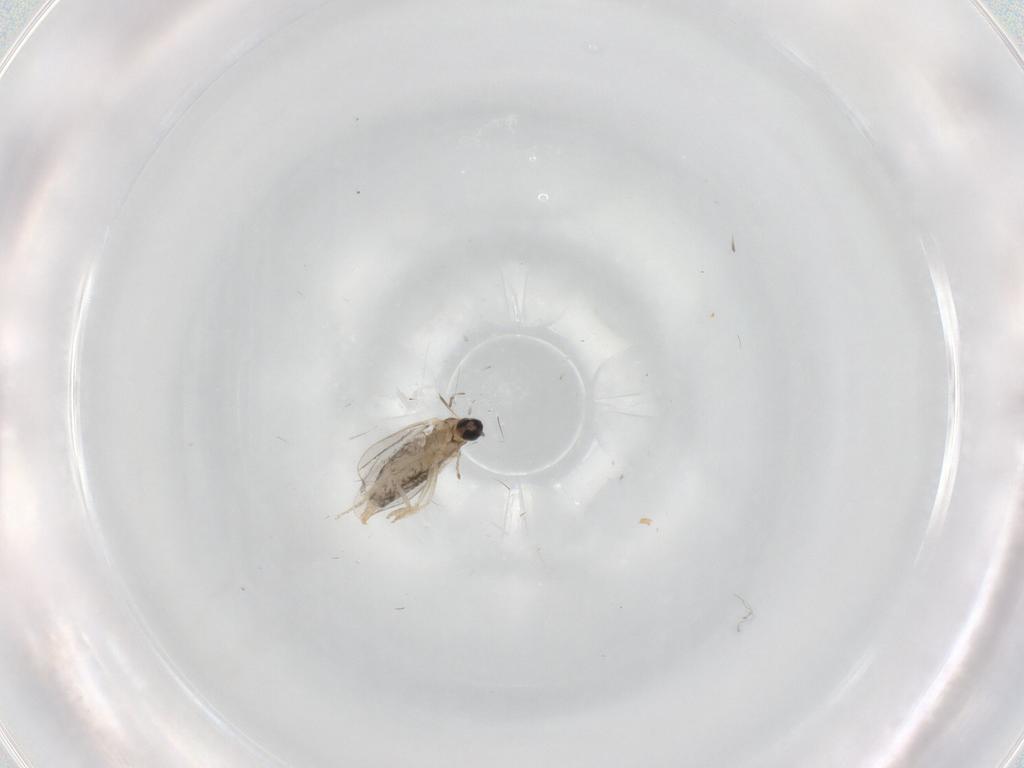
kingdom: Animalia
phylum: Arthropoda
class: Insecta
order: Diptera
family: Cecidomyiidae
